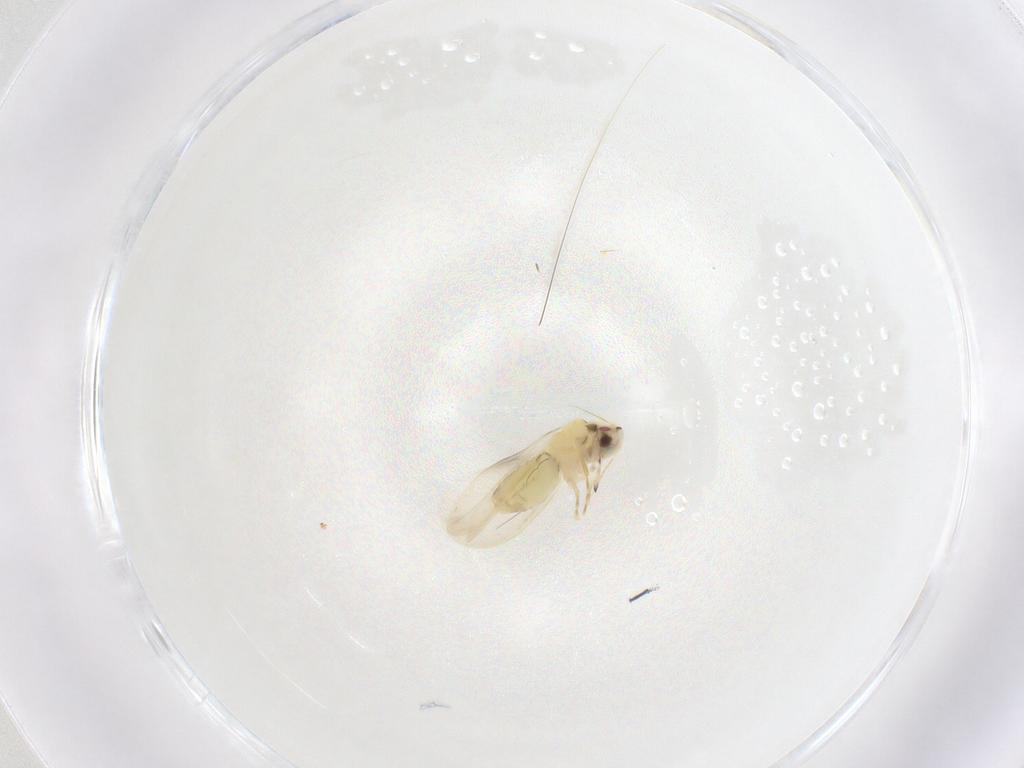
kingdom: Animalia
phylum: Arthropoda
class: Insecta
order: Hemiptera
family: Aleyrodidae
